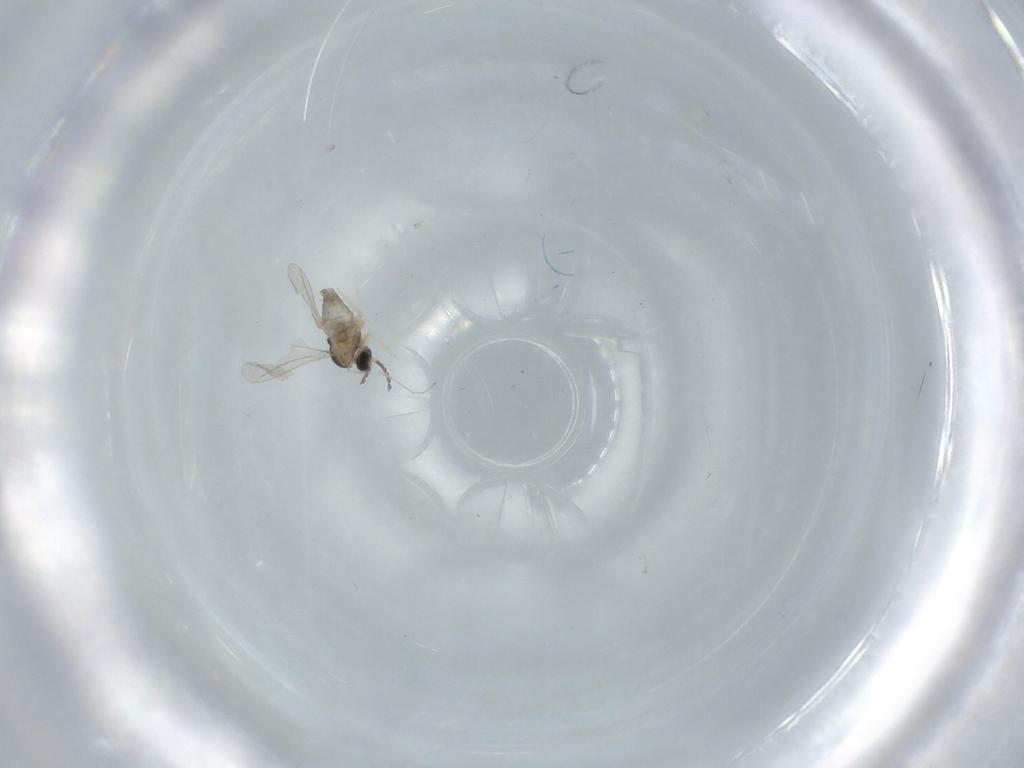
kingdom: Animalia
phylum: Arthropoda
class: Insecta
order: Diptera
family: Cecidomyiidae
